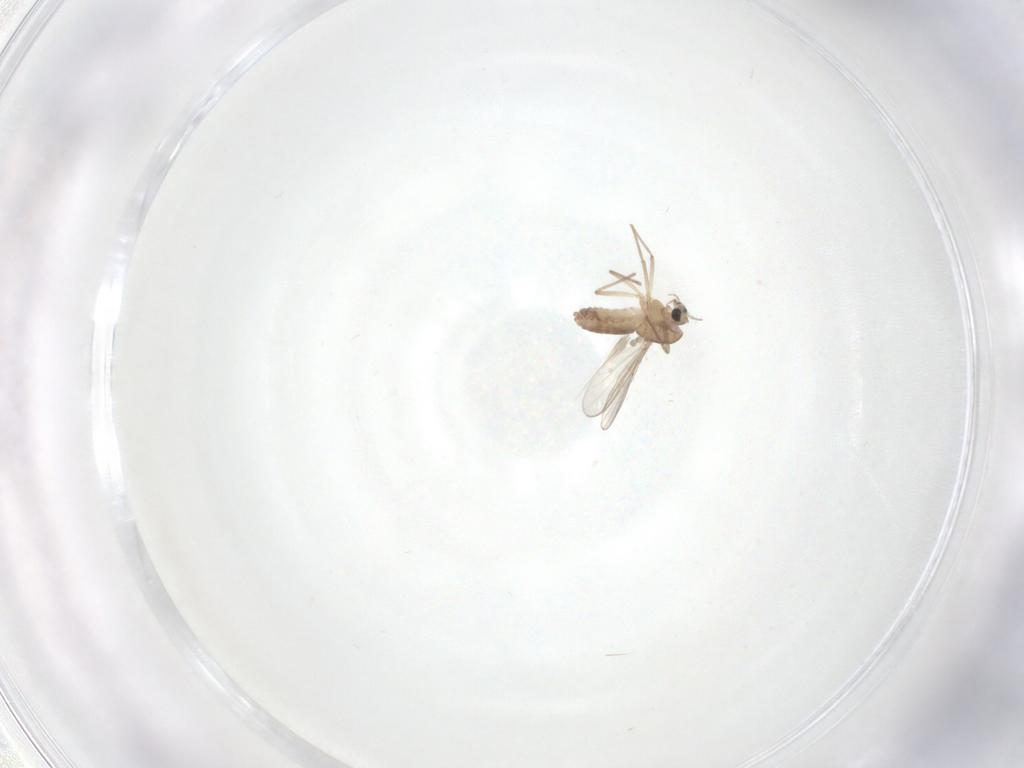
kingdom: Animalia
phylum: Arthropoda
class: Insecta
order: Diptera
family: Chironomidae
